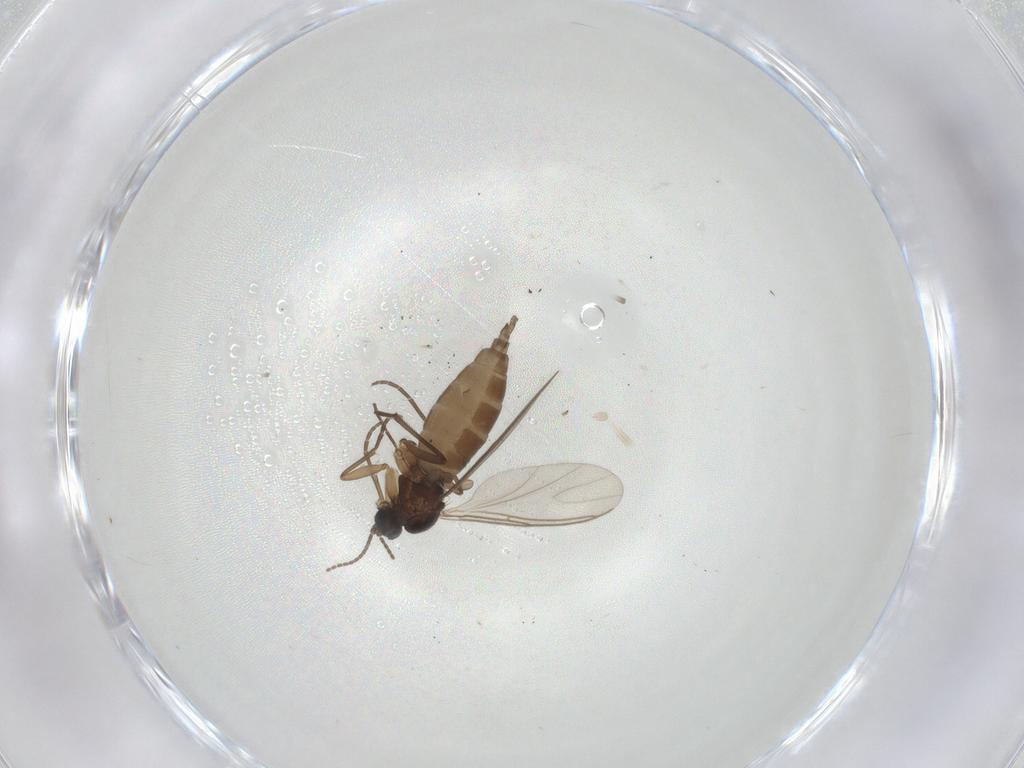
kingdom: Animalia
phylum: Arthropoda
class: Insecta
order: Diptera
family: Sciaridae
